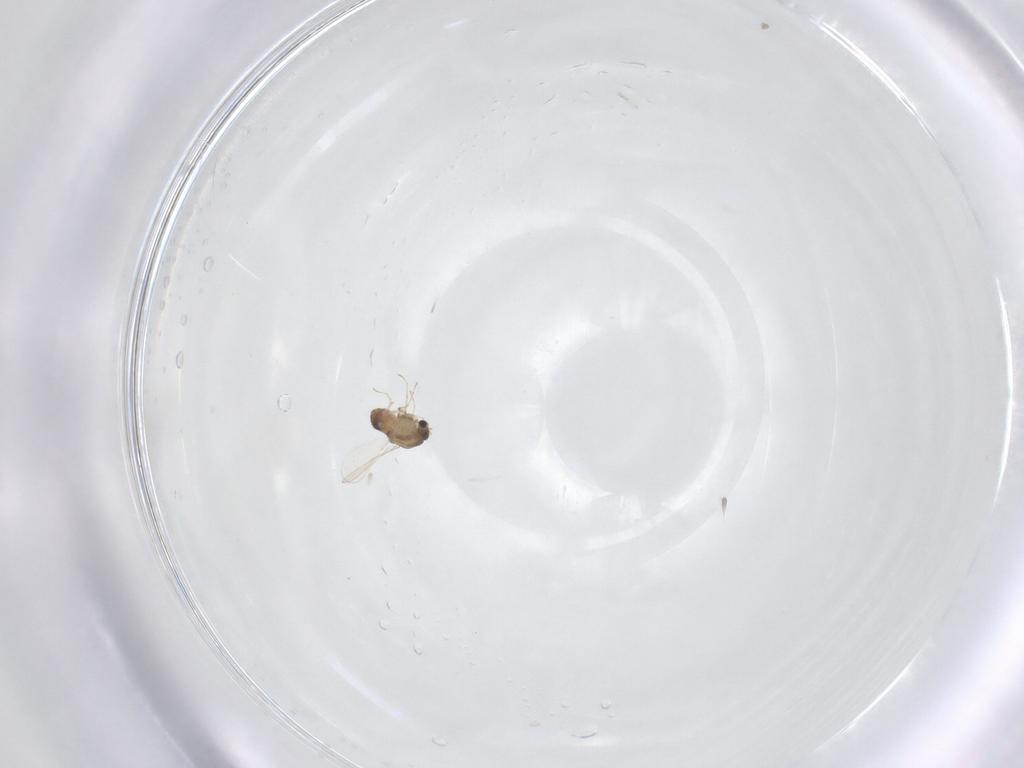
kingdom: Animalia
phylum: Arthropoda
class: Insecta
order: Diptera
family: Chironomidae
